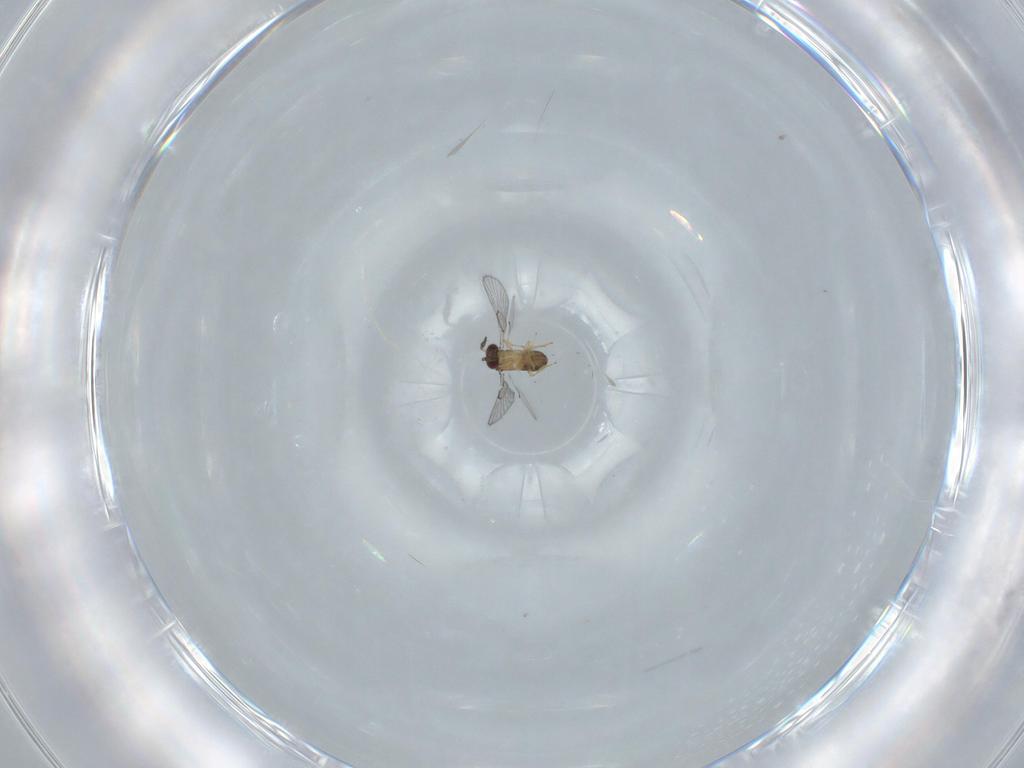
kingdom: Animalia
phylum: Arthropoda
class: Insecta
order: Hymenoptera
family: Trichogrammatidae
